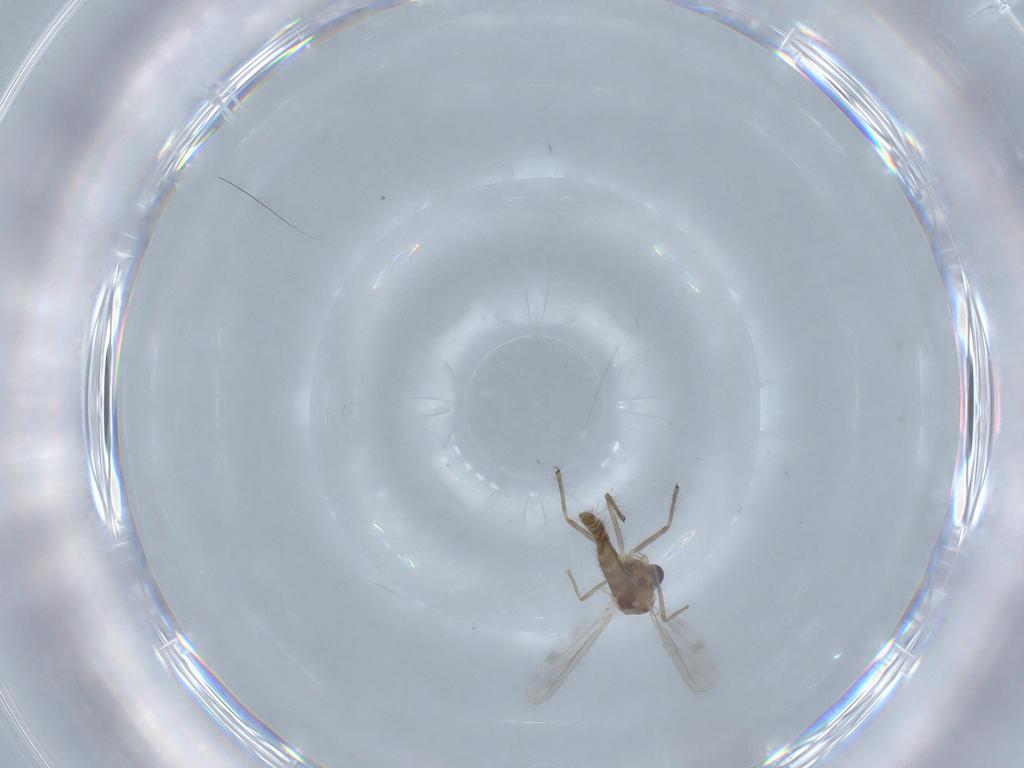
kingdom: Animalia
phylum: Arthropoda
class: Insecta
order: Diptera
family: Chironomidae
